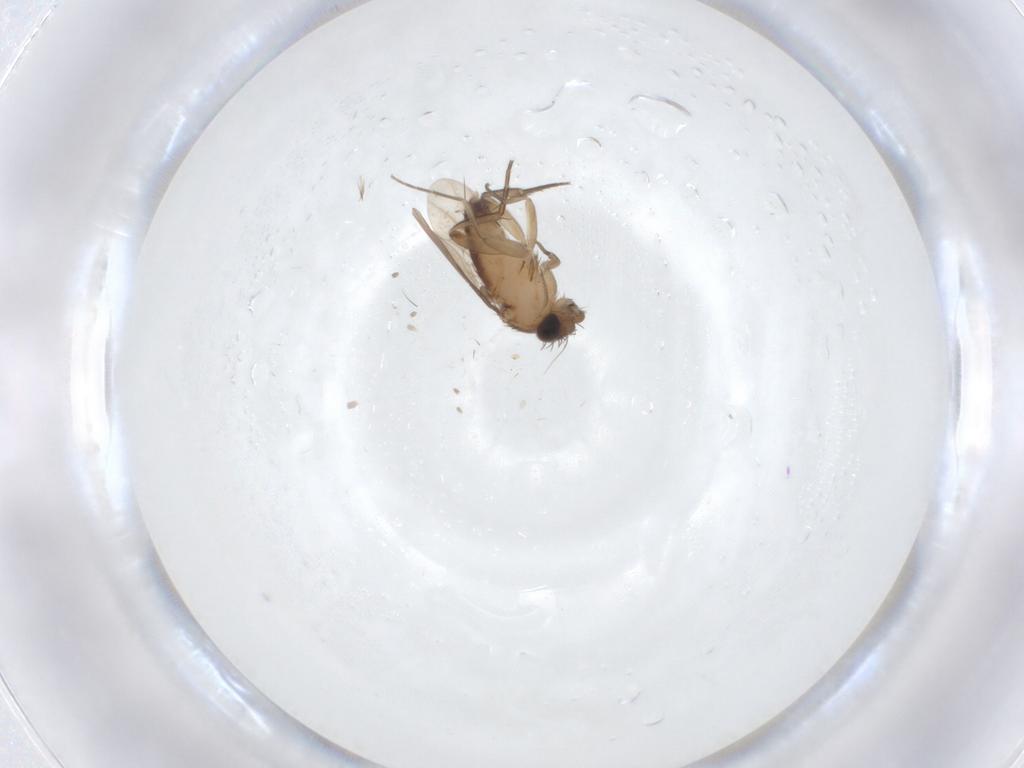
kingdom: Animalia
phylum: Arthropoda
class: Insecta
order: Diptera
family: Phoridae
